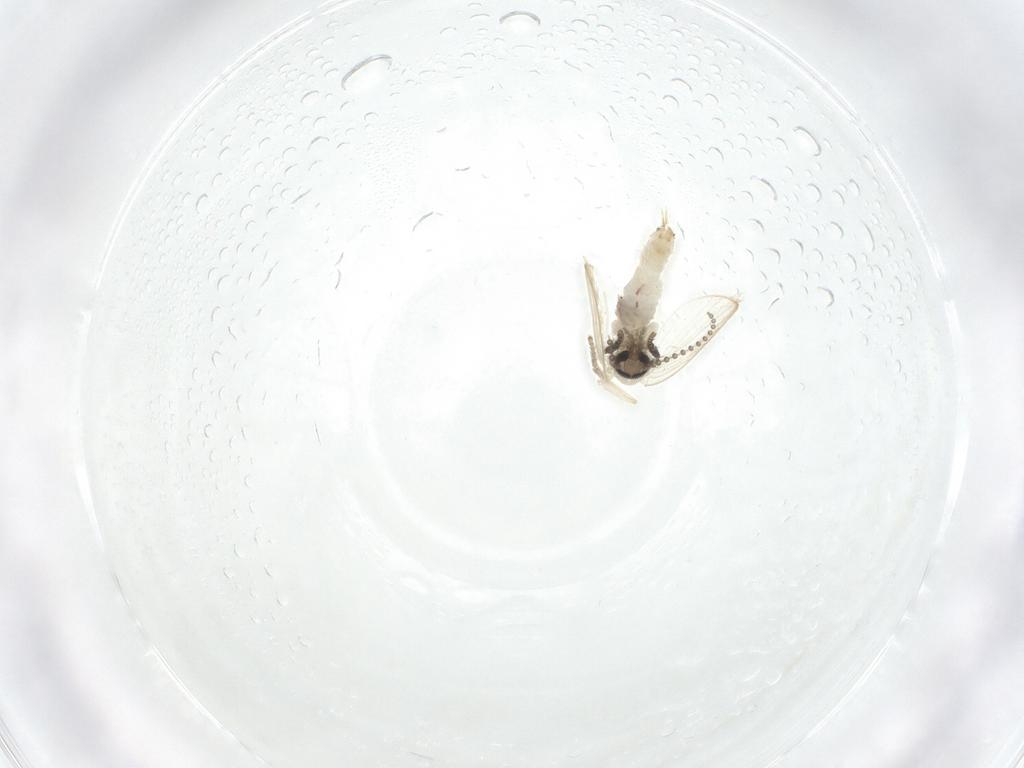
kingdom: Animalia
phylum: Arthropoda
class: Insecta
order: Diptera
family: Psychodidae
